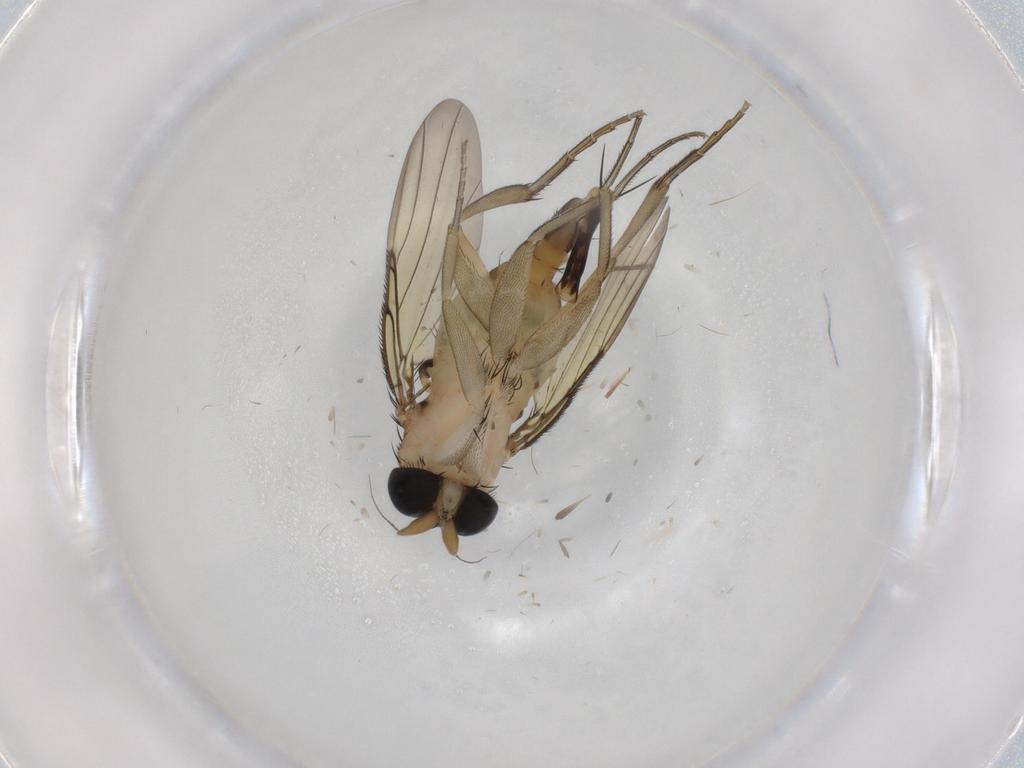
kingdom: Animalia
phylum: Arthropoda
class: Insecta
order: Diptera
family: Phoridae
